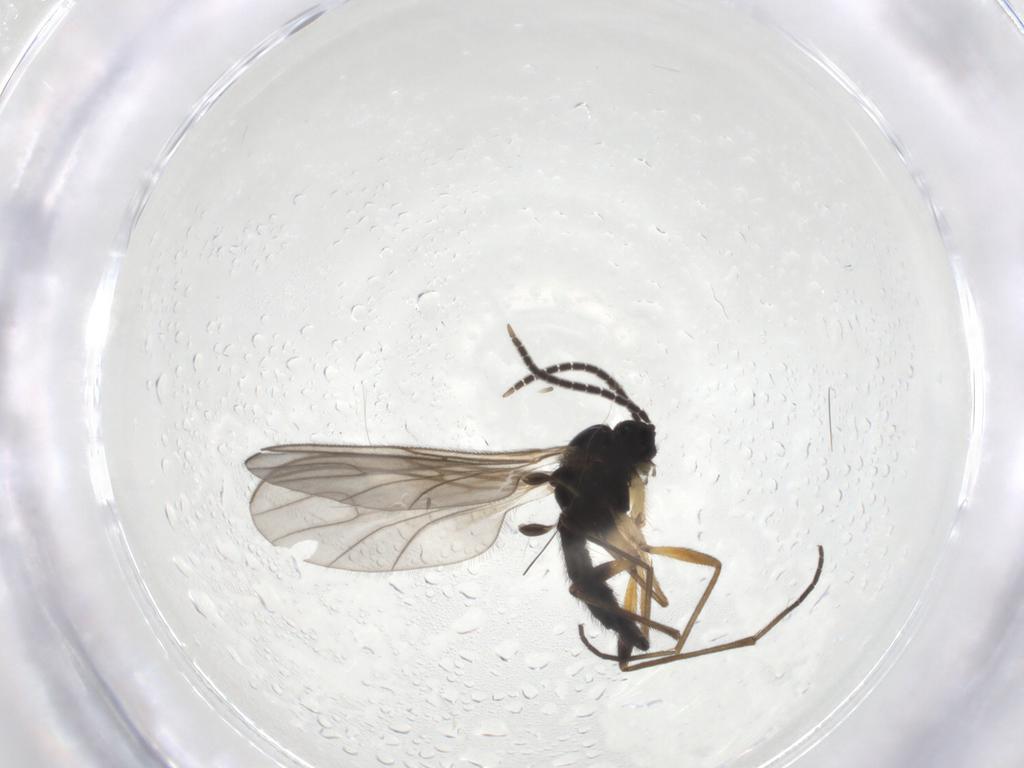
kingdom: Animalia
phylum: Arthropoda
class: Insecta
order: Diptera
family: Sciaridae
